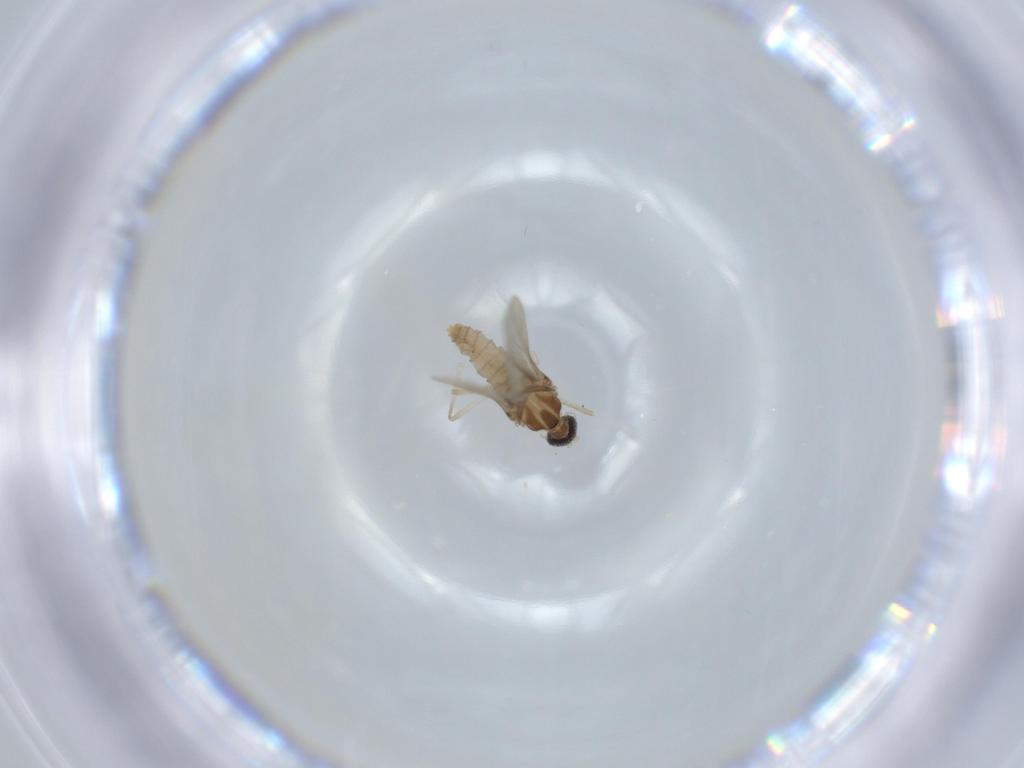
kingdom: Animalia
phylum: Arthropoda
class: Insecta
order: Diptera
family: Cecidomyiidae
